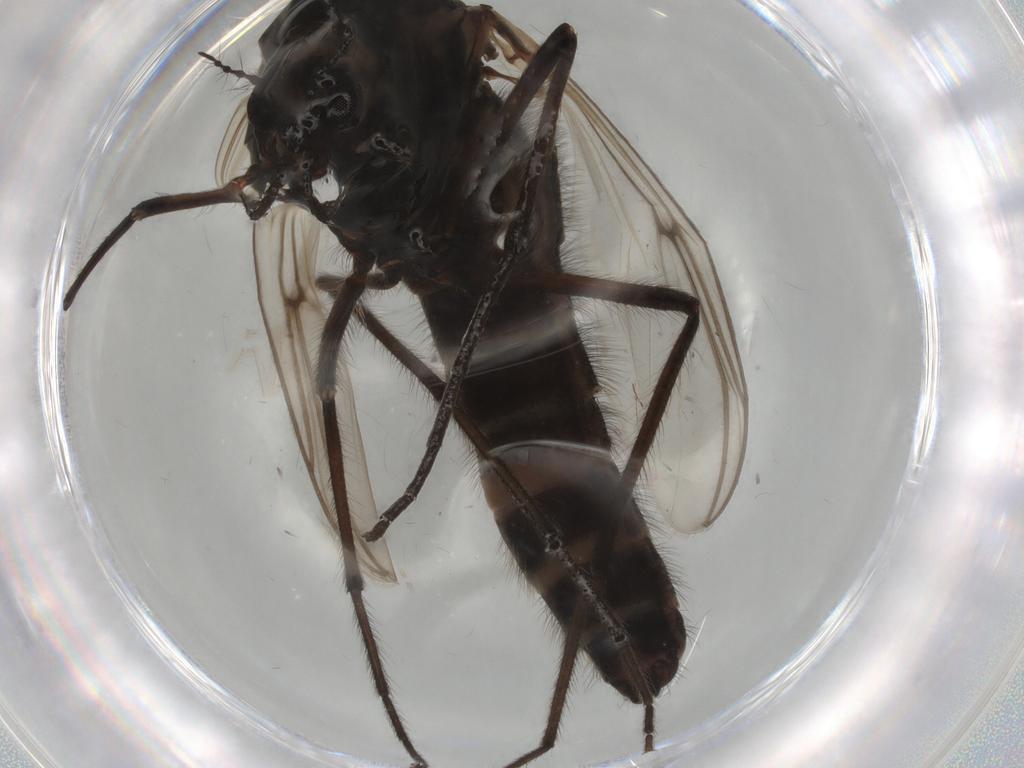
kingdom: Animalia
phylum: Arthropoda
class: Insecta
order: Diptera
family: Chironomidae
